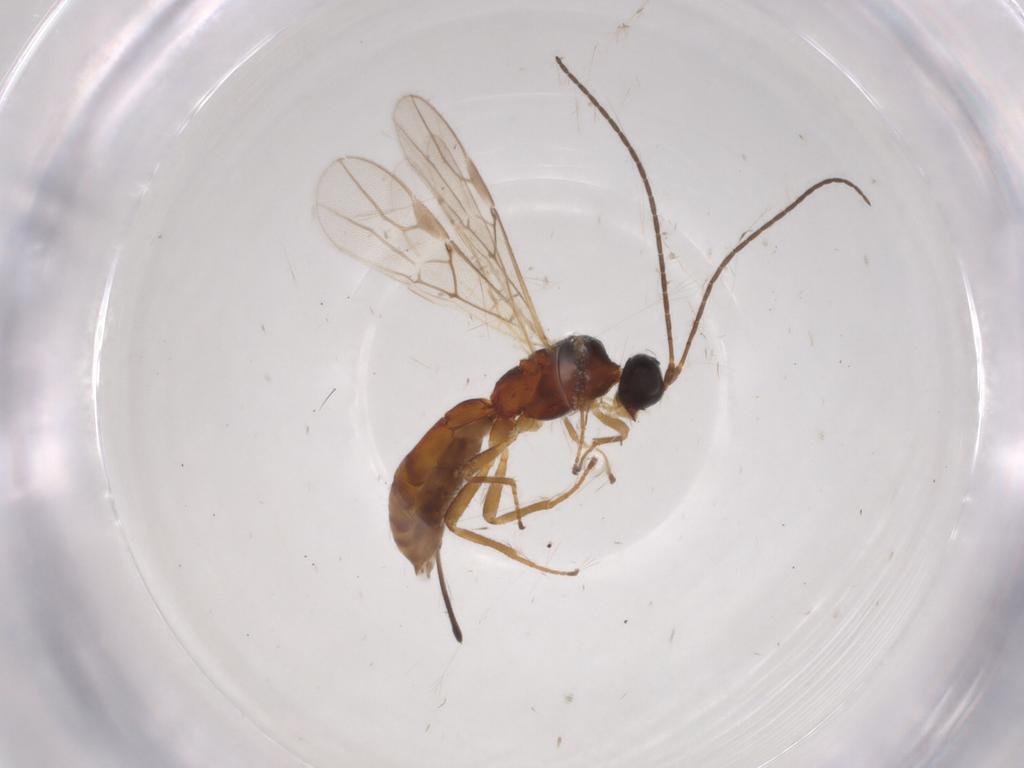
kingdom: Animalia
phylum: Arthropoda
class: Insecta
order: Hymenoptera
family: Braconidae
